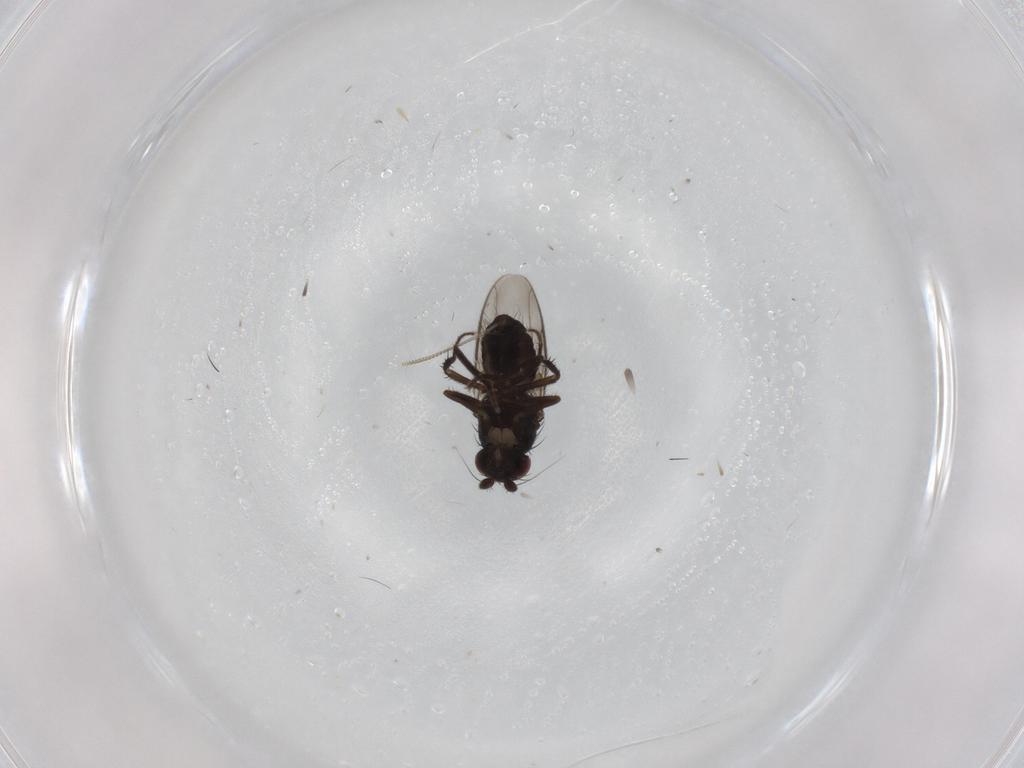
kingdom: Animalia
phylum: Arthropoda
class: Insecta
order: Diptera
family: Sphaeroceridae
